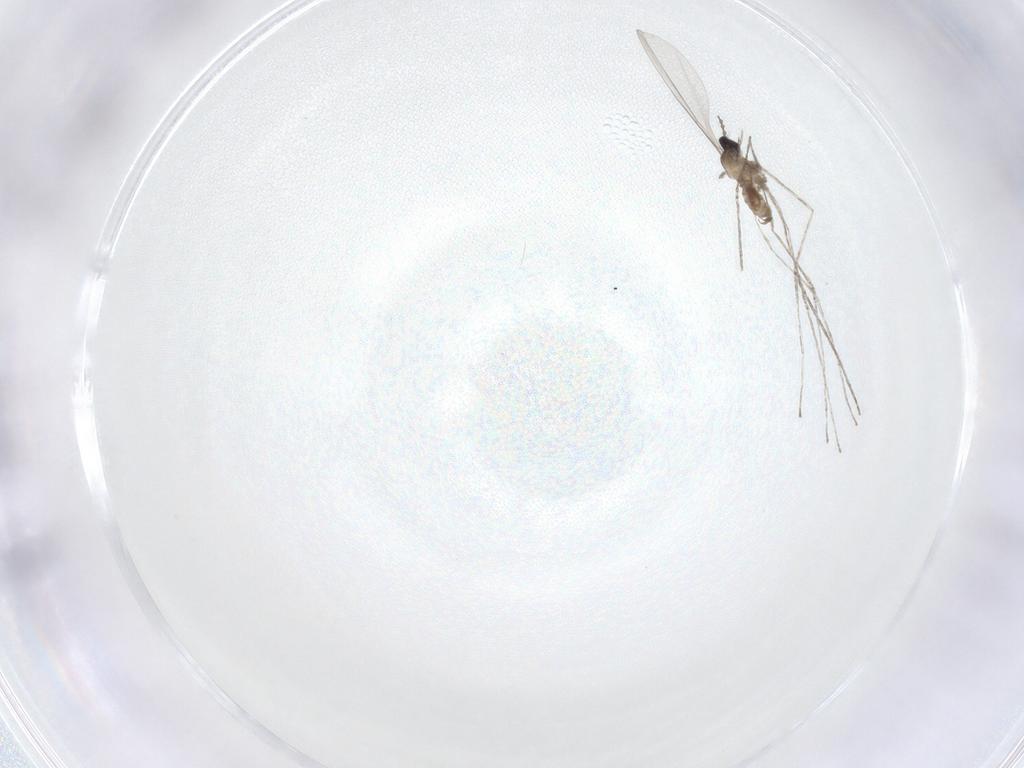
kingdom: Animalia
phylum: Arthropoda
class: Insecta
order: Diptera
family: Cecidomyiidae
